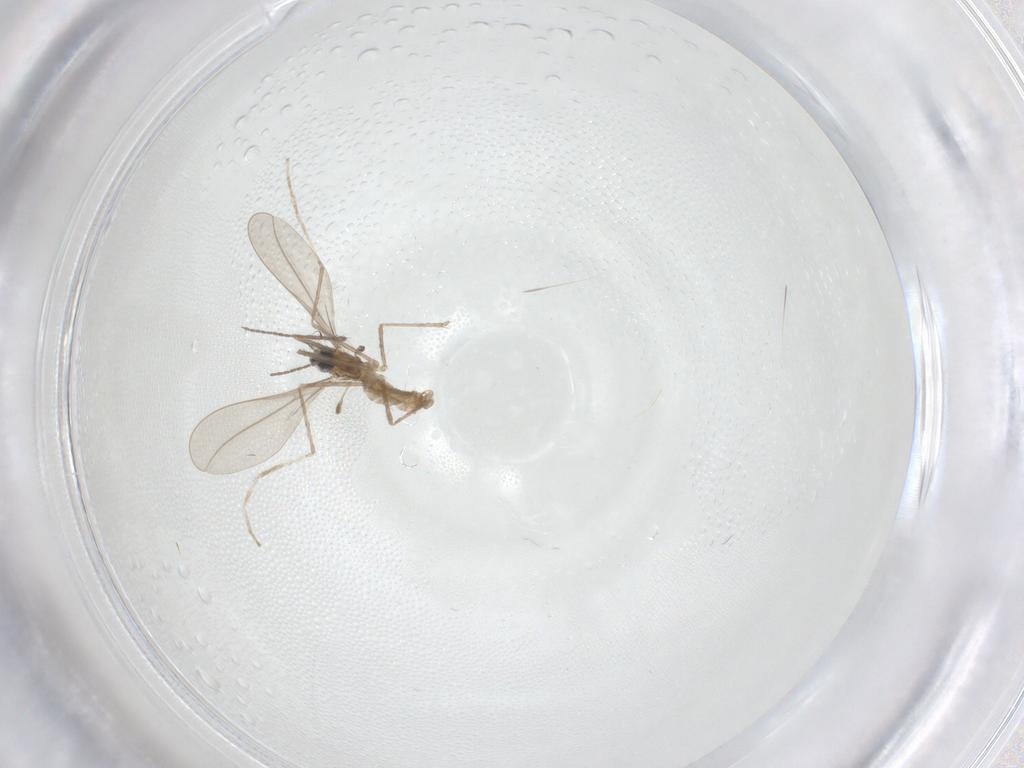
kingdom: Animalia
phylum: Arthropoda
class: Insecta
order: Diptera
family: Cecidomyiidae
